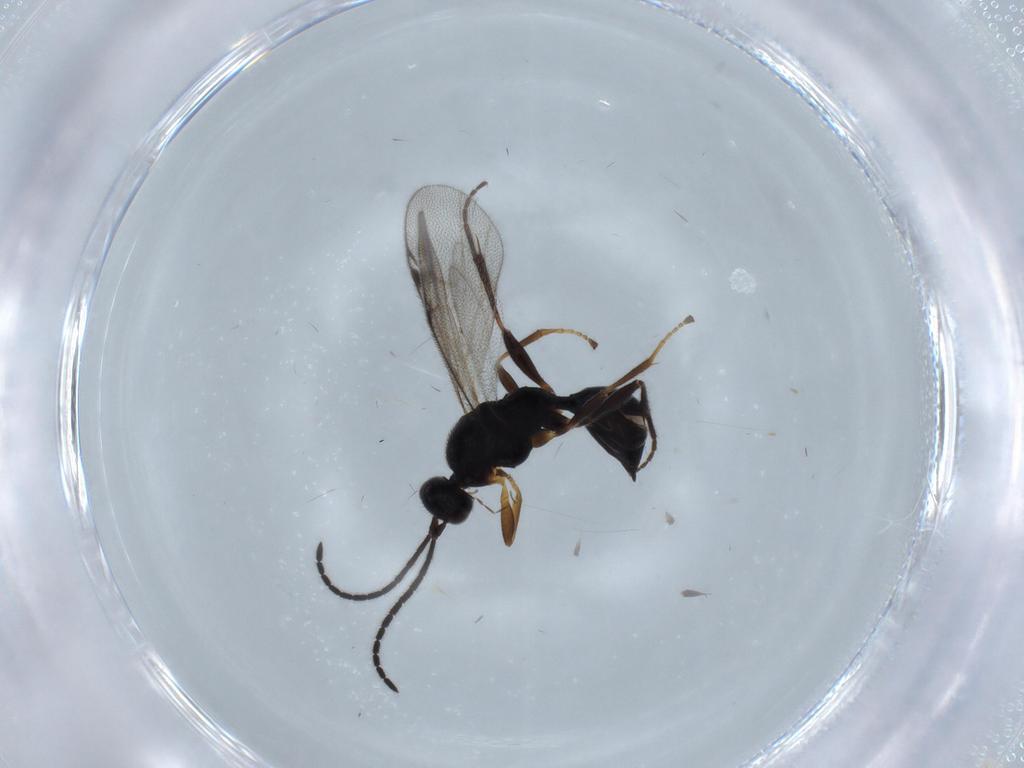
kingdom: Animalia
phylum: Arthropoda
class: Insecta
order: Hymenoptera
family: Proctotrupidae
